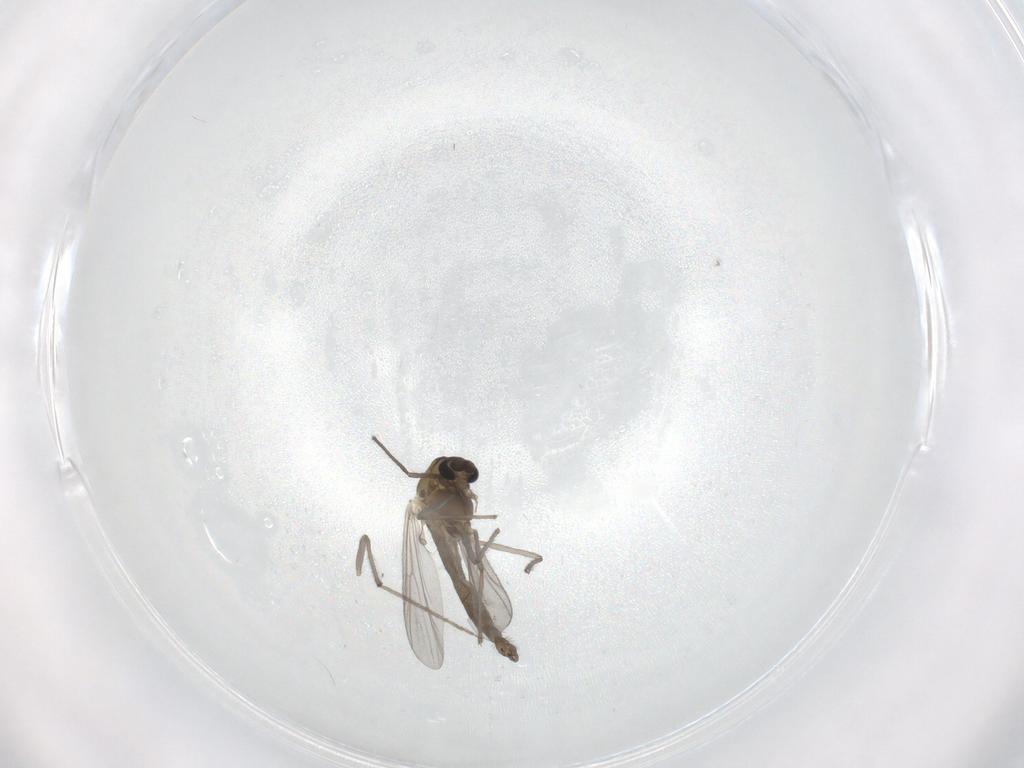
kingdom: Animalia
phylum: Arthropoda
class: Insecta
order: Diptera
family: Chironomidae
